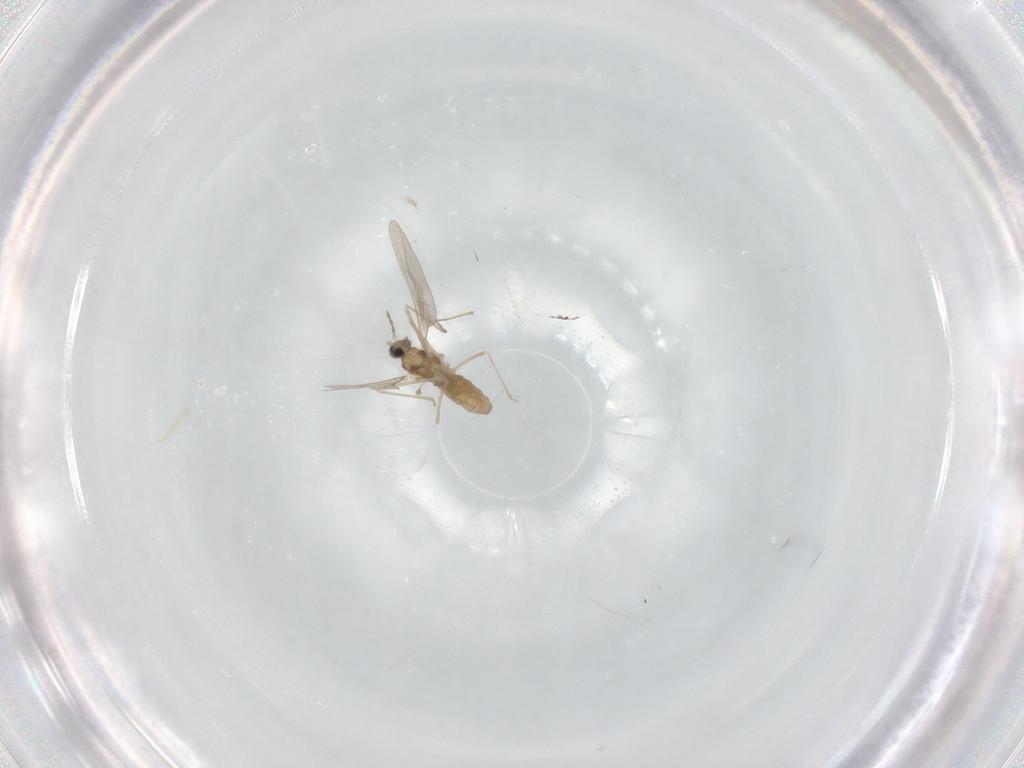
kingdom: Animalia
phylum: Arthropoda
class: Insecta
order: Diptera
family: Cecidomyiidae
